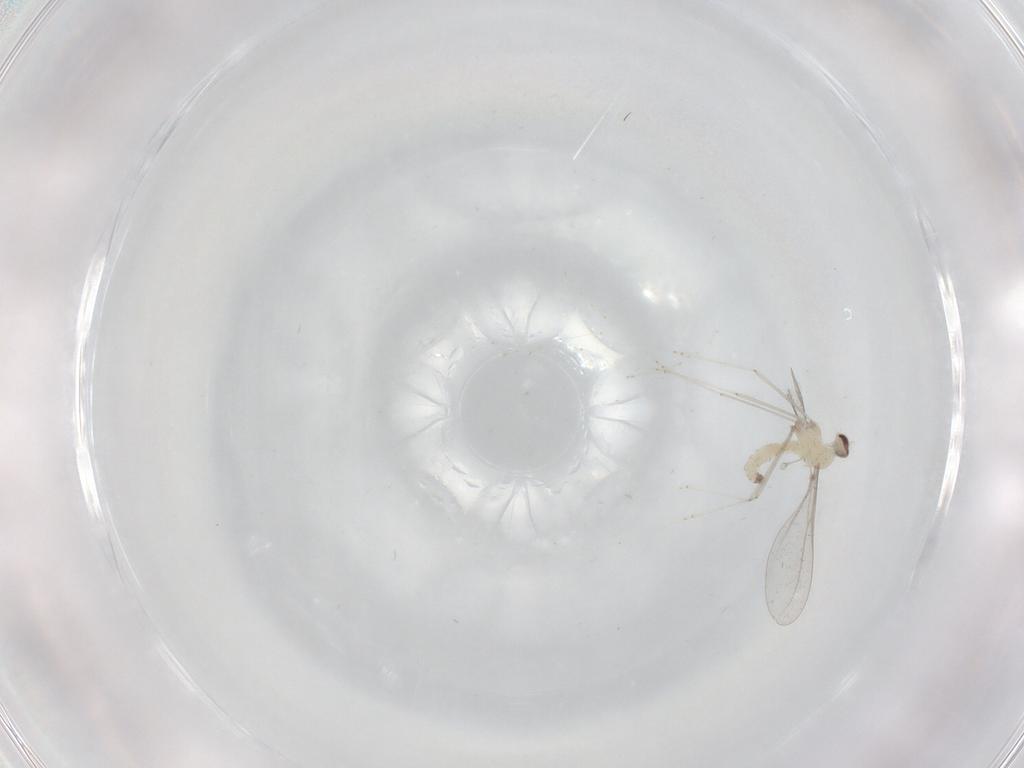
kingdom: Animalia
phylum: Arthropoda
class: Insecta
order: Diptera
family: Cecidomyiidae
